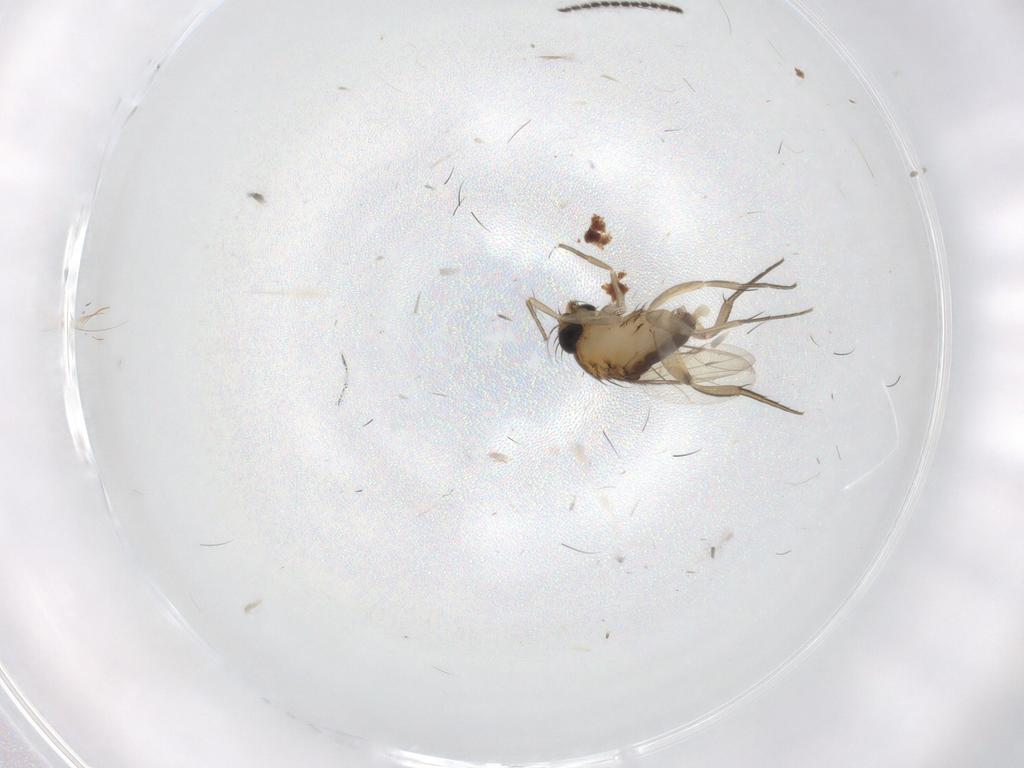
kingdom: Animalia
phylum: Arthropoda
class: Insecta
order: Diptera
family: Phoridae
